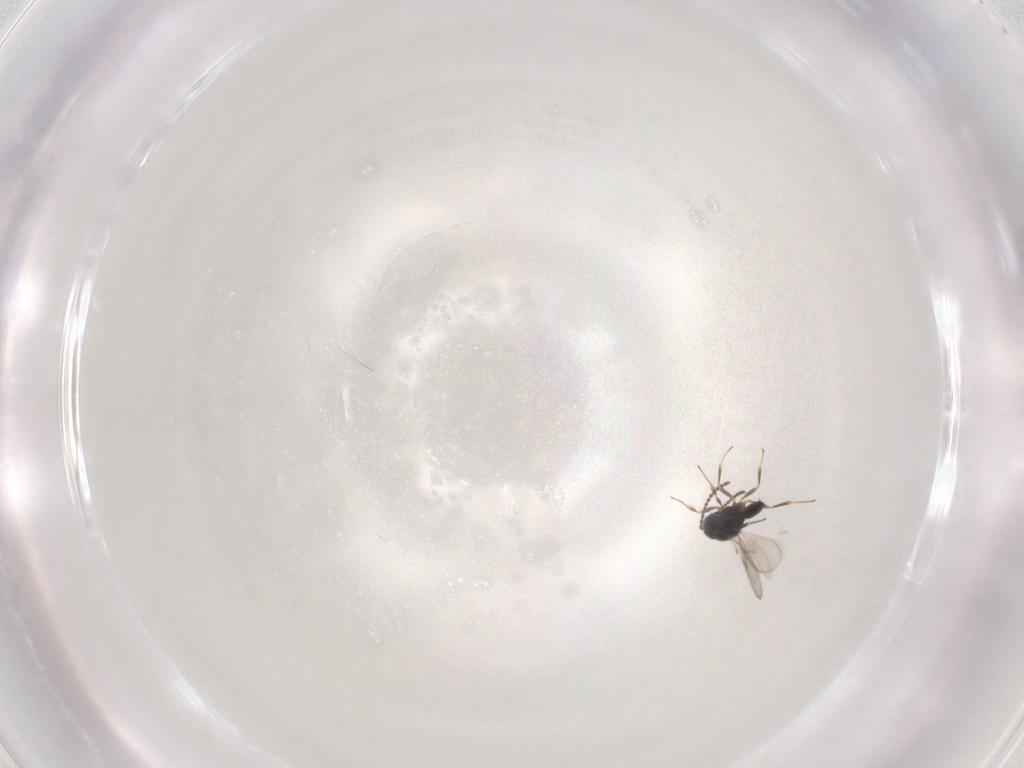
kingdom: Animalia
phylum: Arthropoda
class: Insecta
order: Hymenoptera
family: Scelionidae
